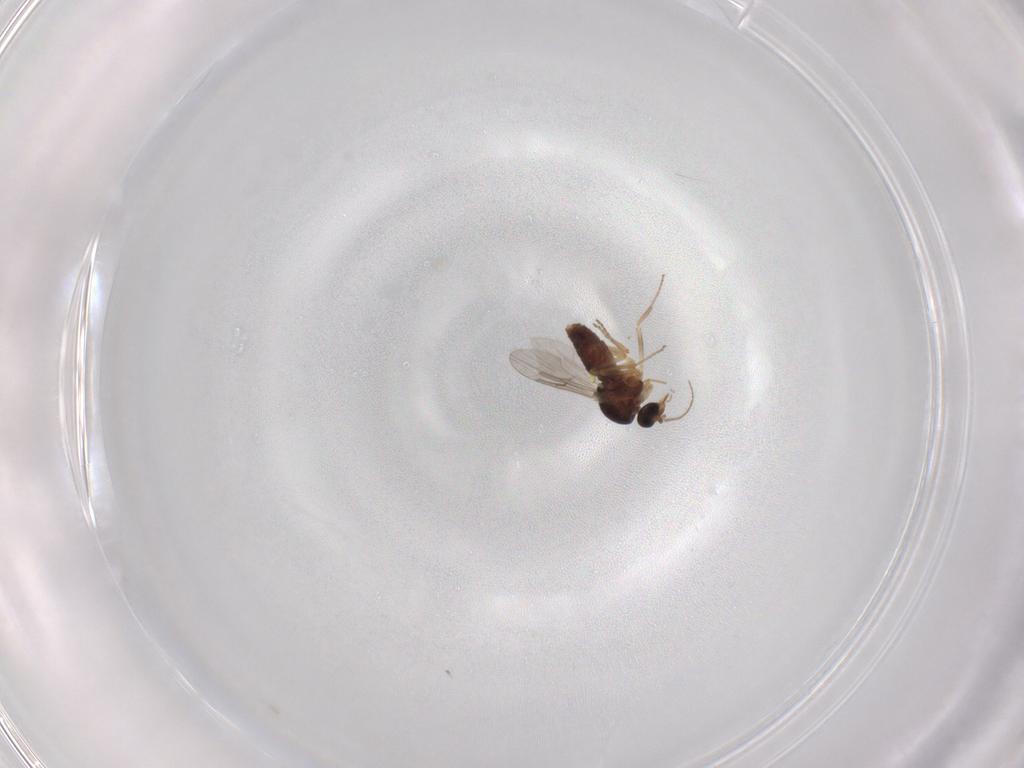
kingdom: Animalia
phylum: Arthropoda
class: Insecta
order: Diptera
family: Ceratopogonidae
